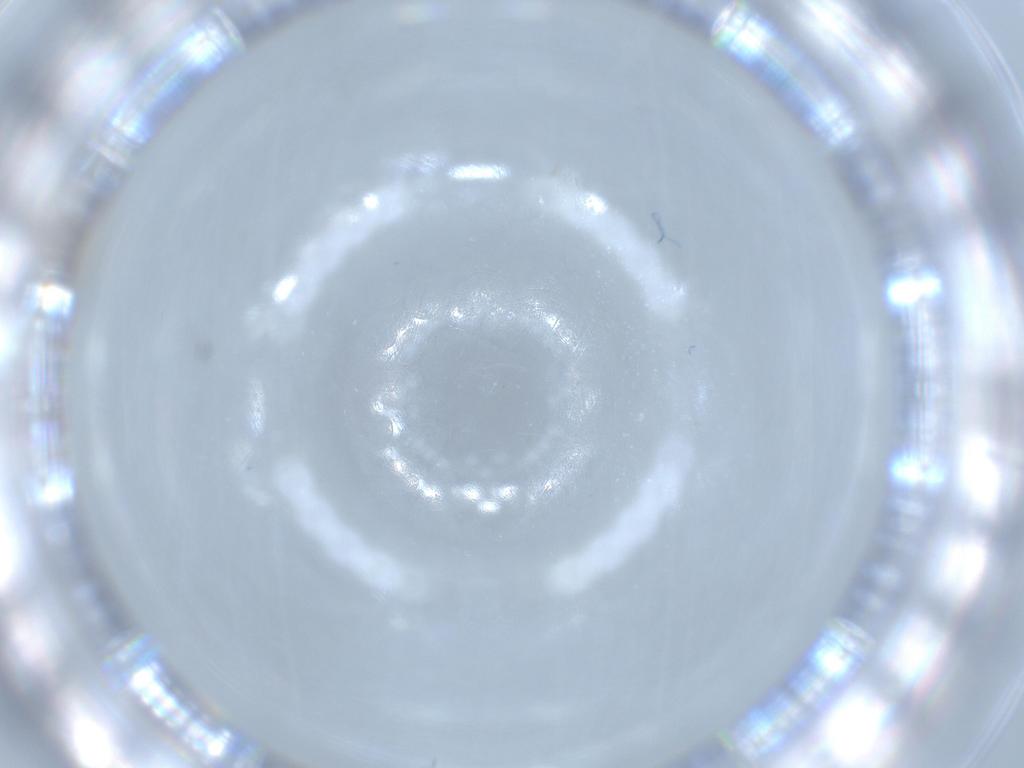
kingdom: Animalia
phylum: Arthropoda
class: Insecta
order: Diptera
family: Cecidomyiidae
